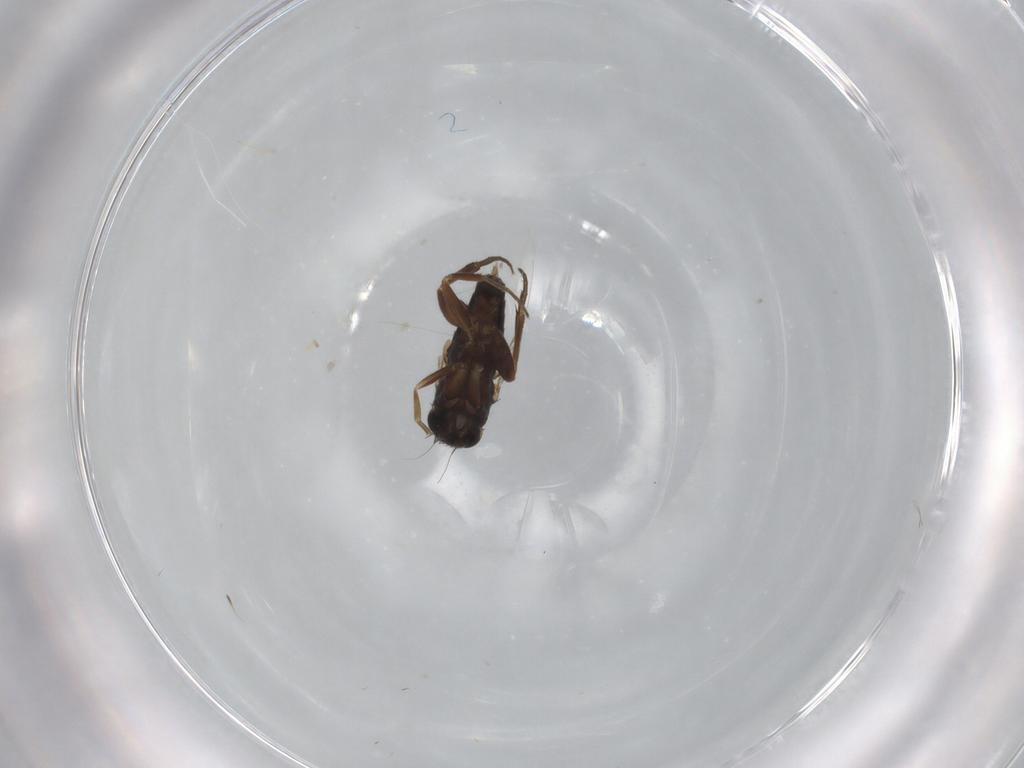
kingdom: Animalia
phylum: Arthropoda
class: Insecta
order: Diptera
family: Phoridae
